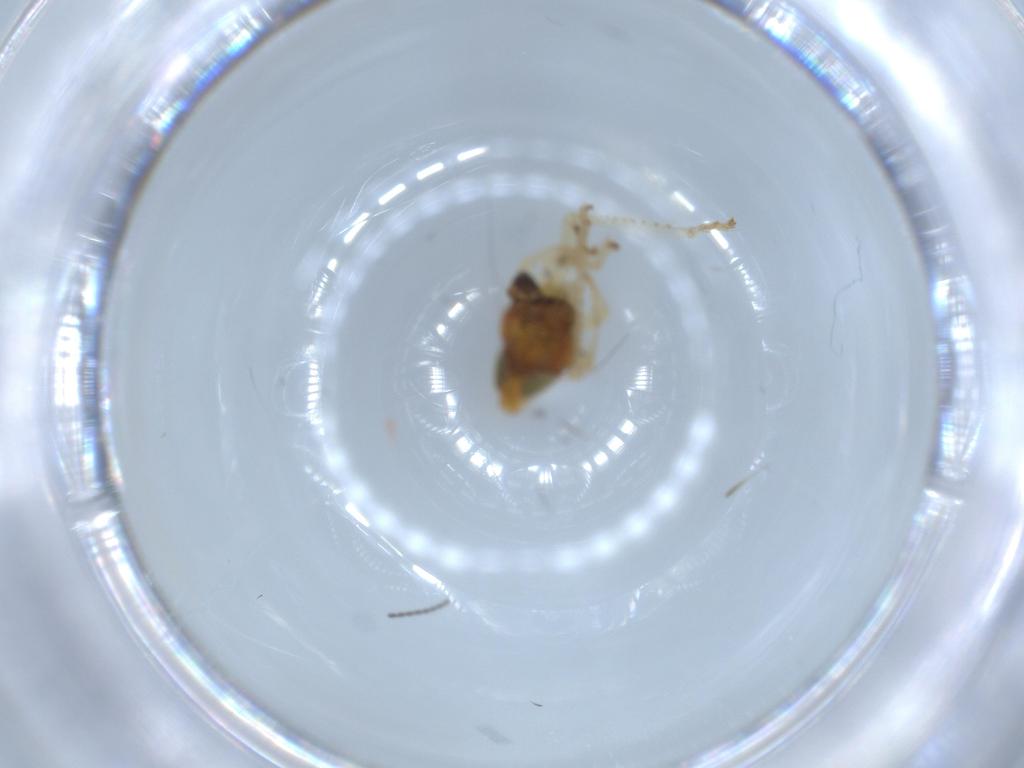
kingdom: Animalia
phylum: Arthropoda
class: Insecta
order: Hemiptera
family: Cicadellidae
